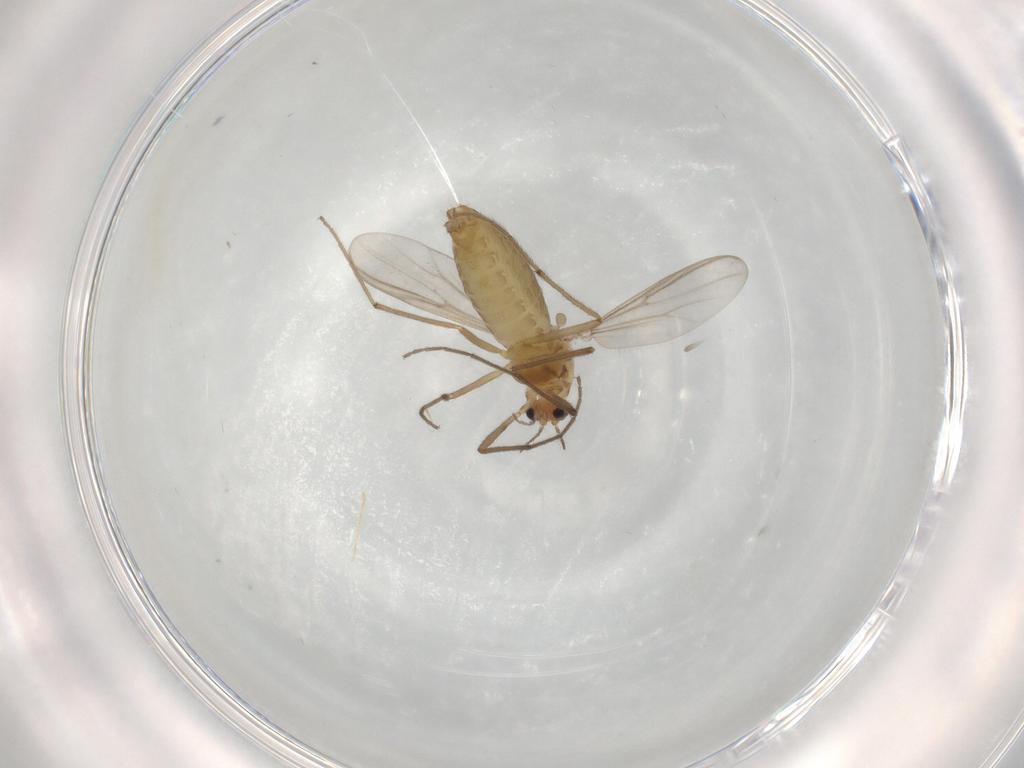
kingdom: Animalia
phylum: Arthropoda
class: Insecta
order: Diptera
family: Chironomidae
